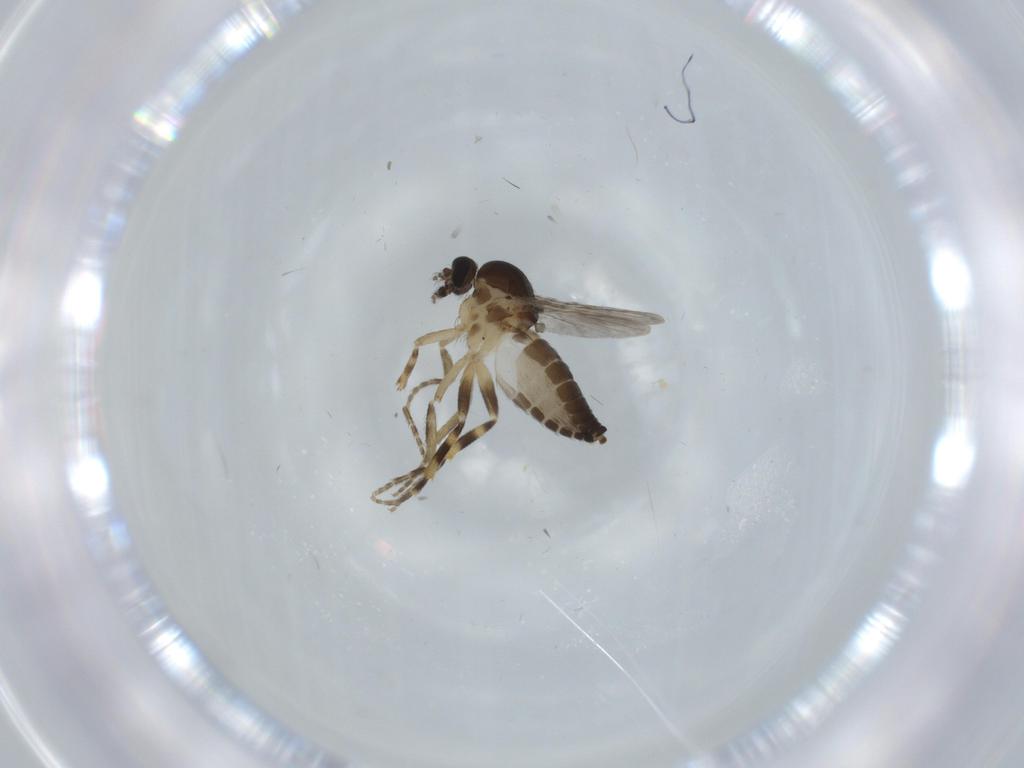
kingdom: Animalia
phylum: Arthropoda
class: Insecta
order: Diptera
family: Ceratopogonidae
